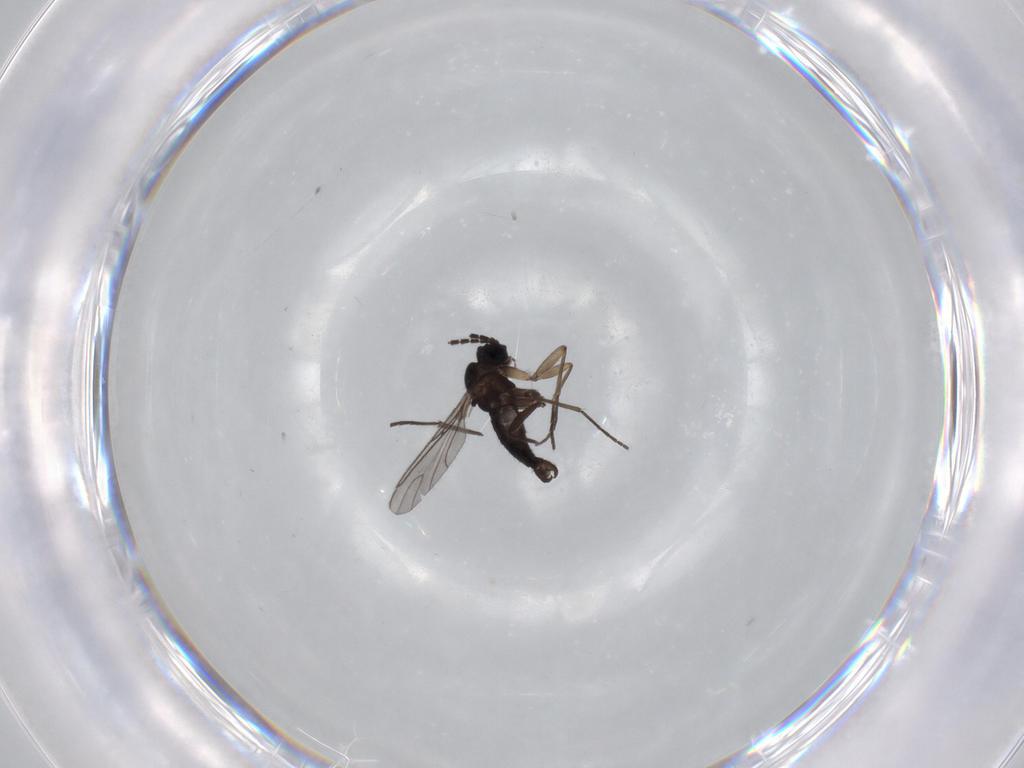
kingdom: Animalia
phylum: Arthropoda
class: Insecta
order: Diptera
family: Sciaridae
